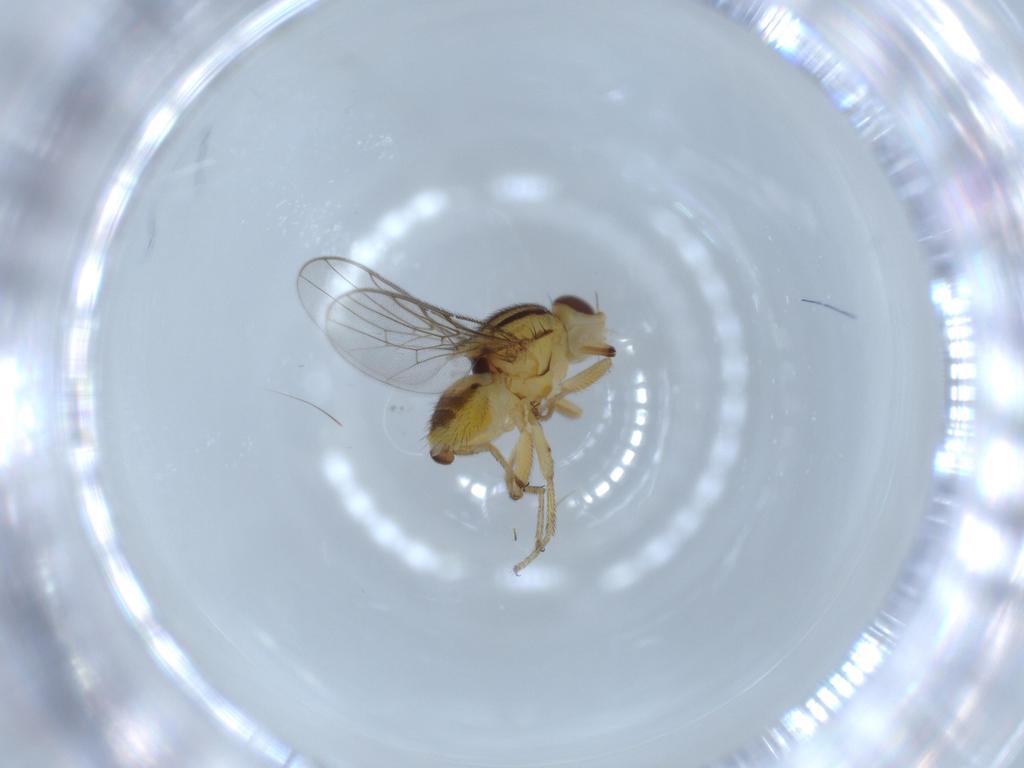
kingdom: Animalia
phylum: Arthropoda
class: Insecta
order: Diptera
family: Chloropidae
